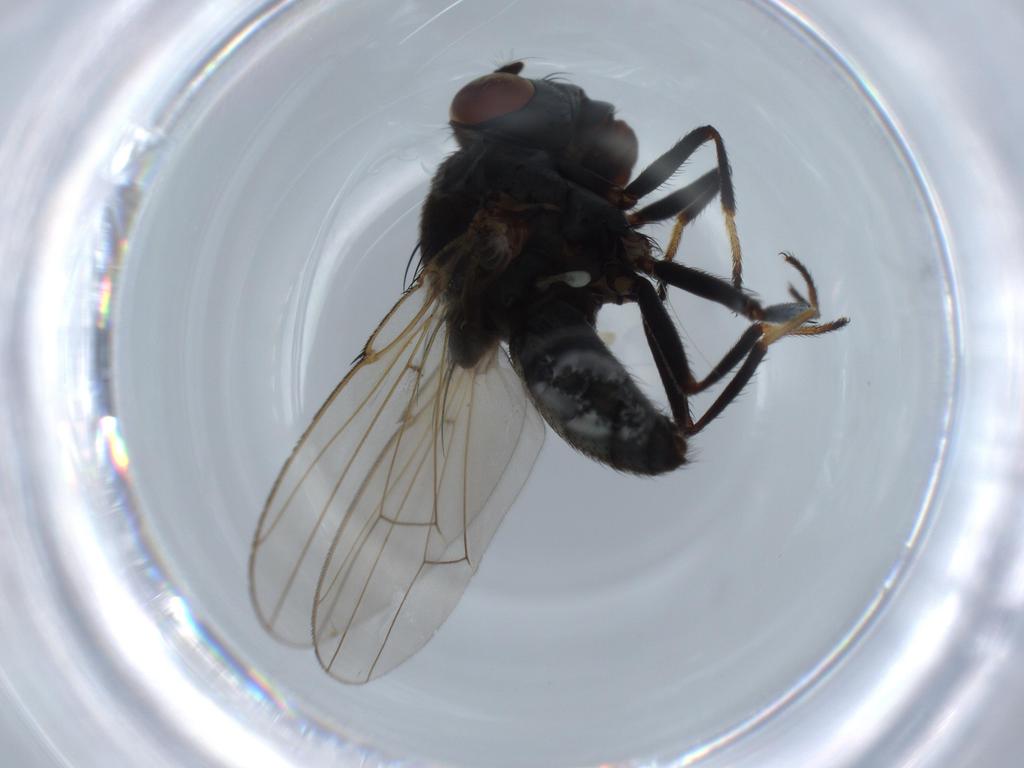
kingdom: Animalia
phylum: Arthropoda
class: Insecta
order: Diptera
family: Ephydridae
